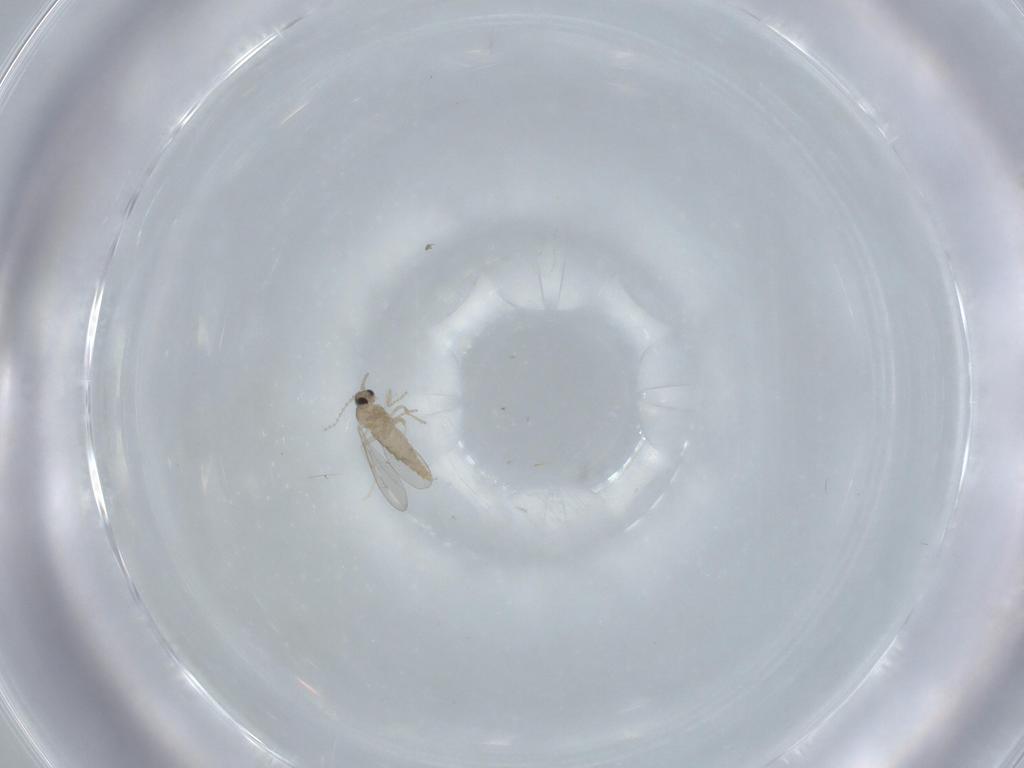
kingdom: Animalia
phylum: Arthropoda
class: Insecta
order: Diptera
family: Cecidomyiidae
